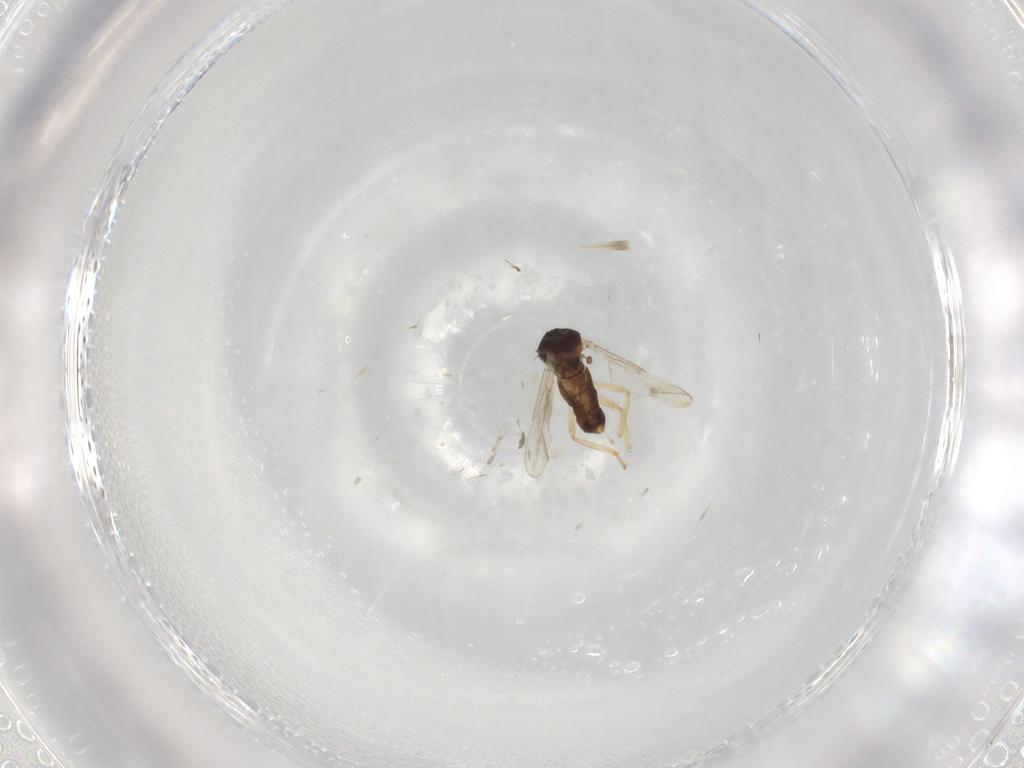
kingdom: Animalia
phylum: Arthropoda
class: Insecta
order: Diptera
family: Ceratopogonidae
